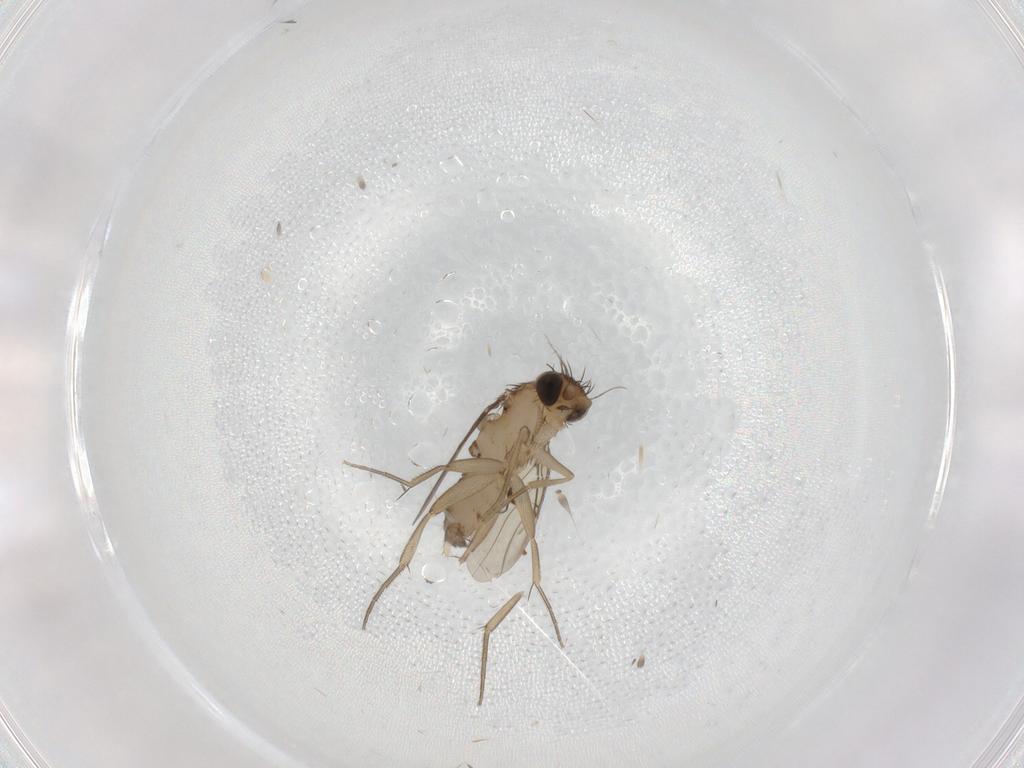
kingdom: Animalia
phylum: Arthropoda
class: Insecta
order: Diptera
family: Phoridae
